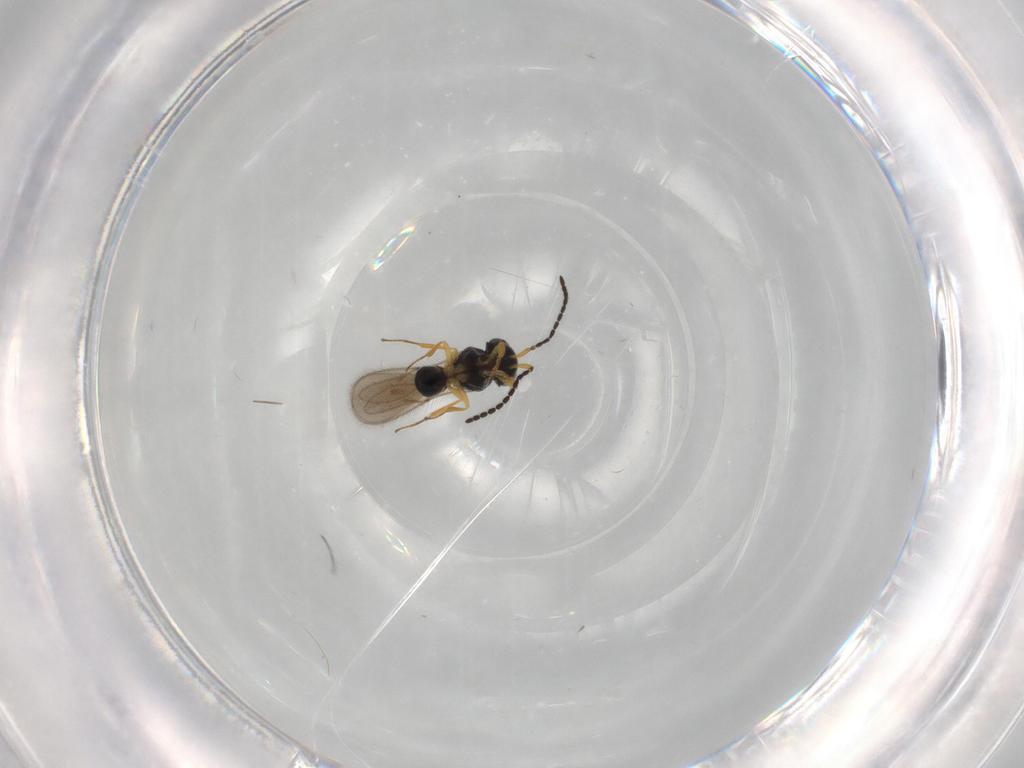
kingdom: Animalia
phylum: Arthropoda
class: Insecta
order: Hymenoptera
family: Scelionidae
